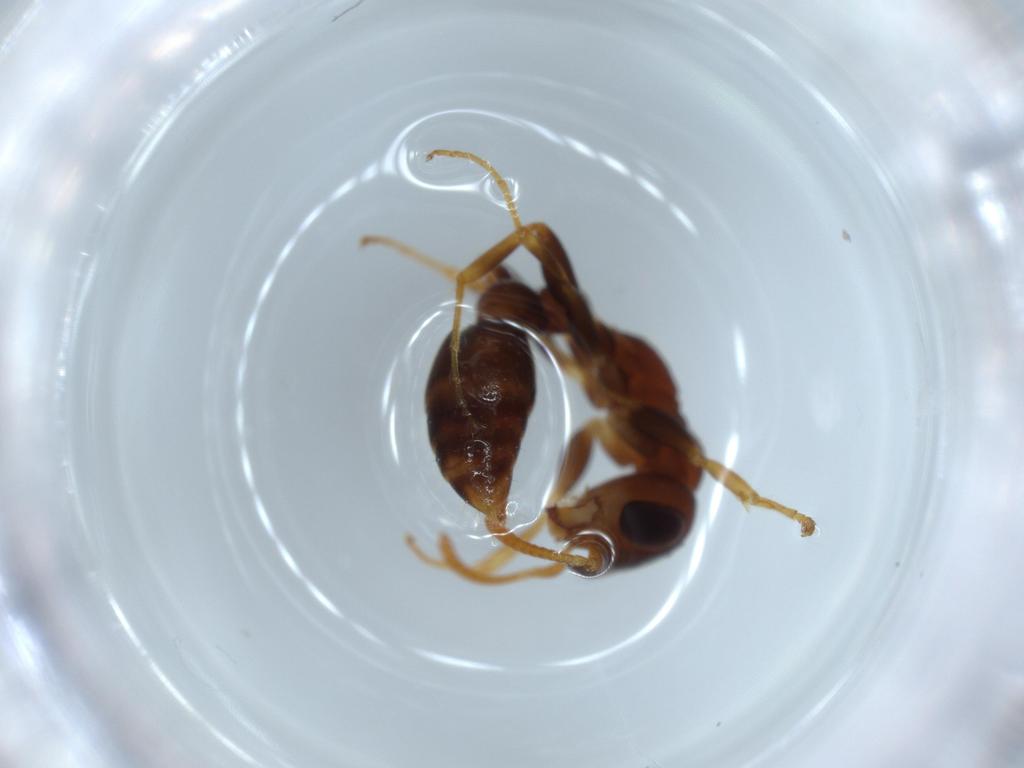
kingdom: Animalia
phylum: Arthropoda
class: Insecta
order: Hymenoptera
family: Formicidae
